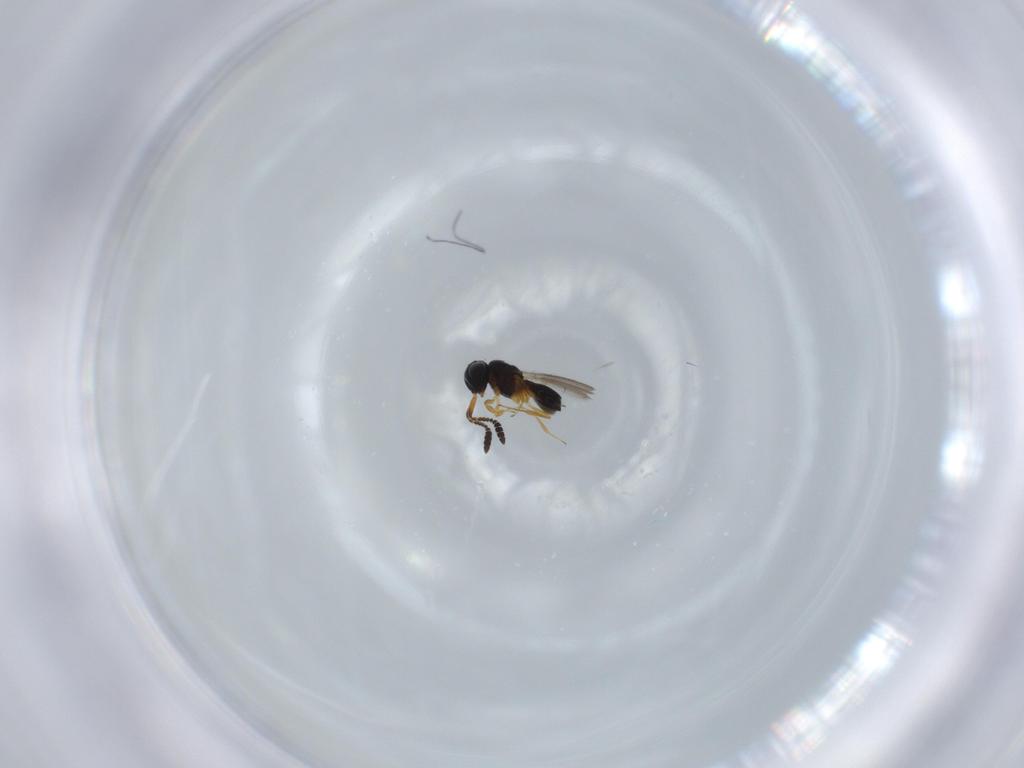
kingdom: Animalia
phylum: Arthropoda
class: Insecta
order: Hymenoptera
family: Scelionidae
